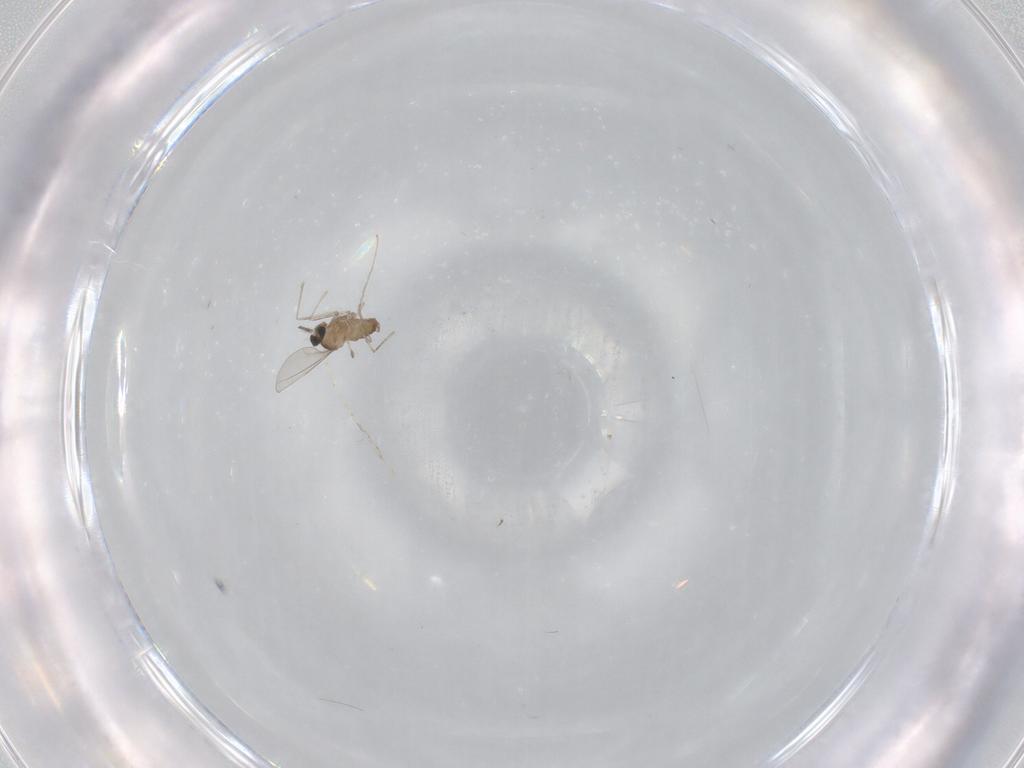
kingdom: Animalia
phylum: Arthropoda
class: Insecta
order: Diptera
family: Cecidomyiidae
